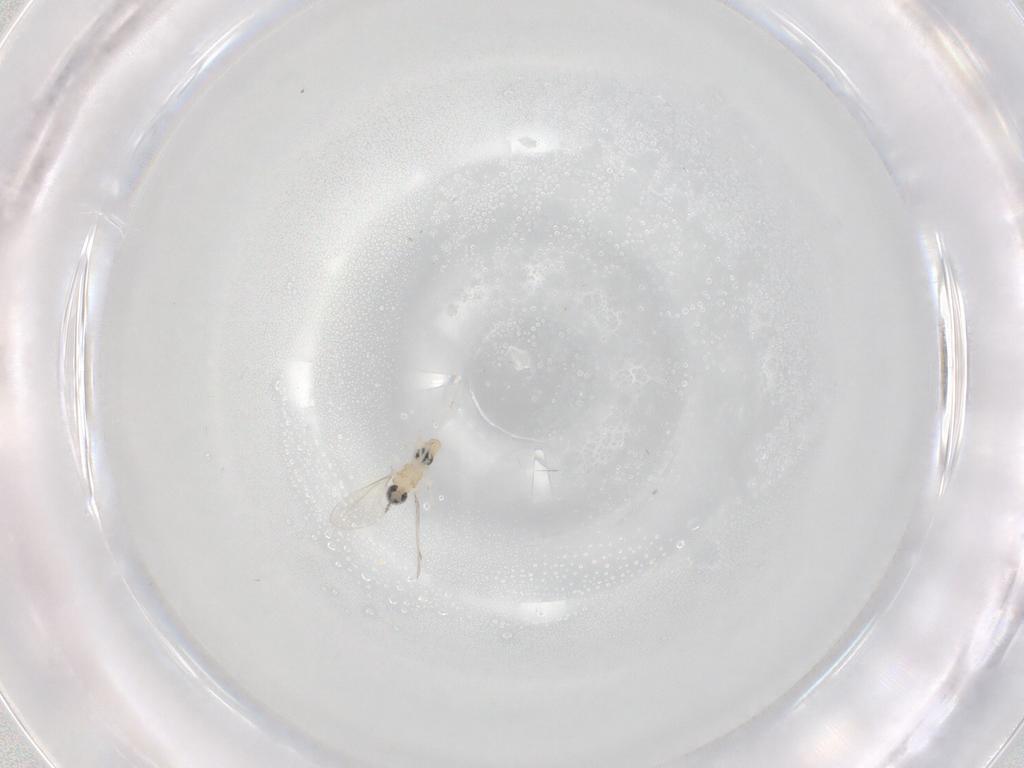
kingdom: Animalia
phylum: Arthropoda
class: Insecta
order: Diptera
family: Cecidomyiidae
